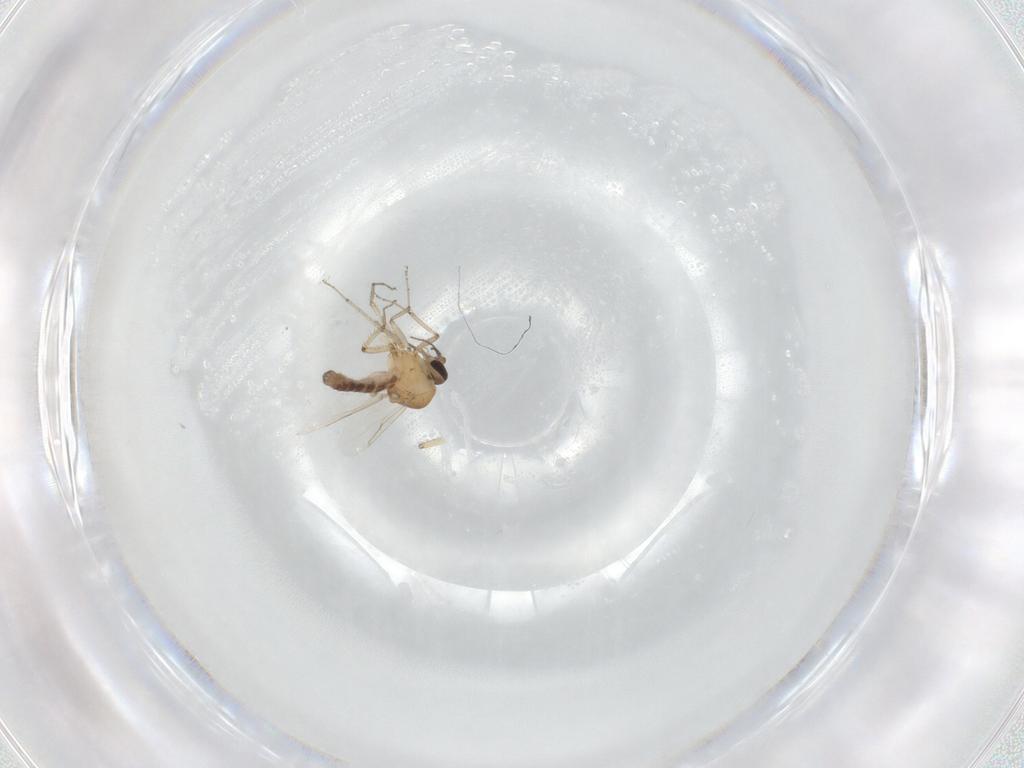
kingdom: Animalia
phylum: Arthropoda
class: Insecta
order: Diptera
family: Ceratopogonidae
